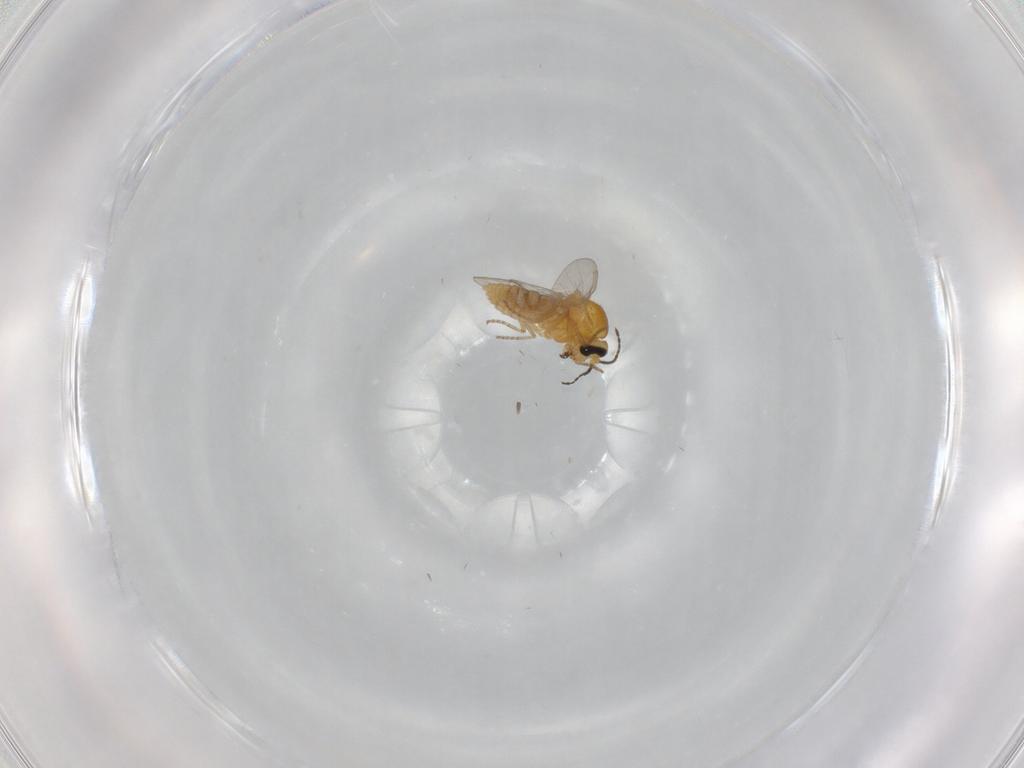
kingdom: Animalia
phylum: Arthropoda
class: Insecta
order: Diptera
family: Ceratopogonidae
